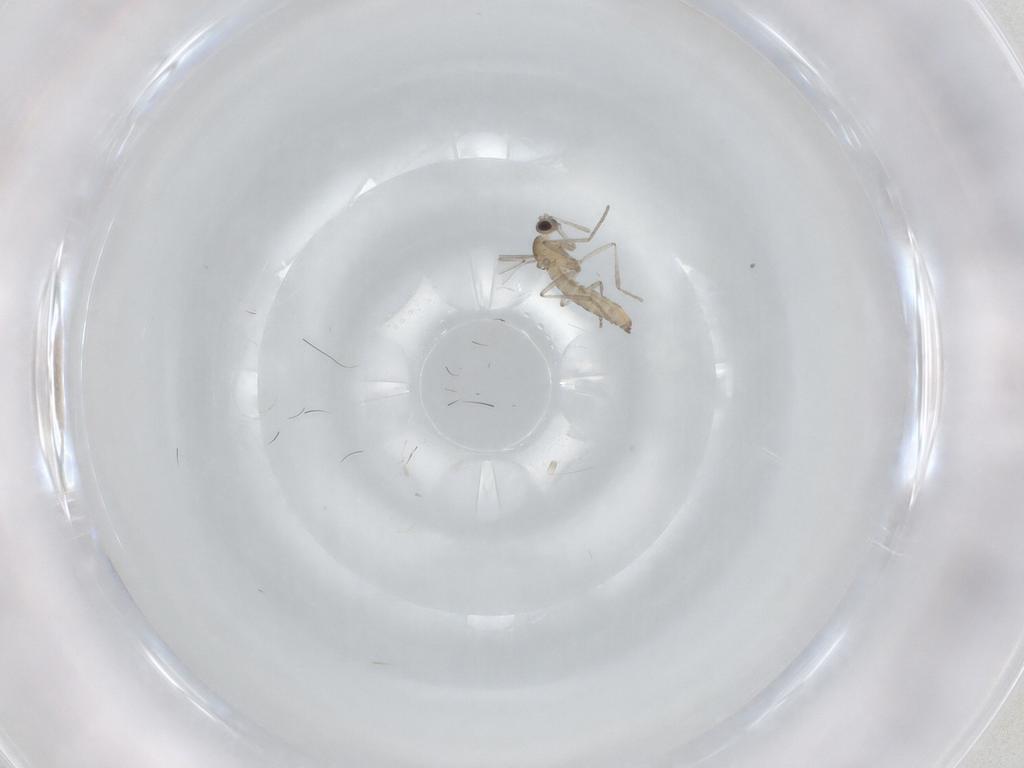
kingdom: Animalia
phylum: Arthropoda
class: Insecta
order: Diptera
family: Cecidomyiidae
